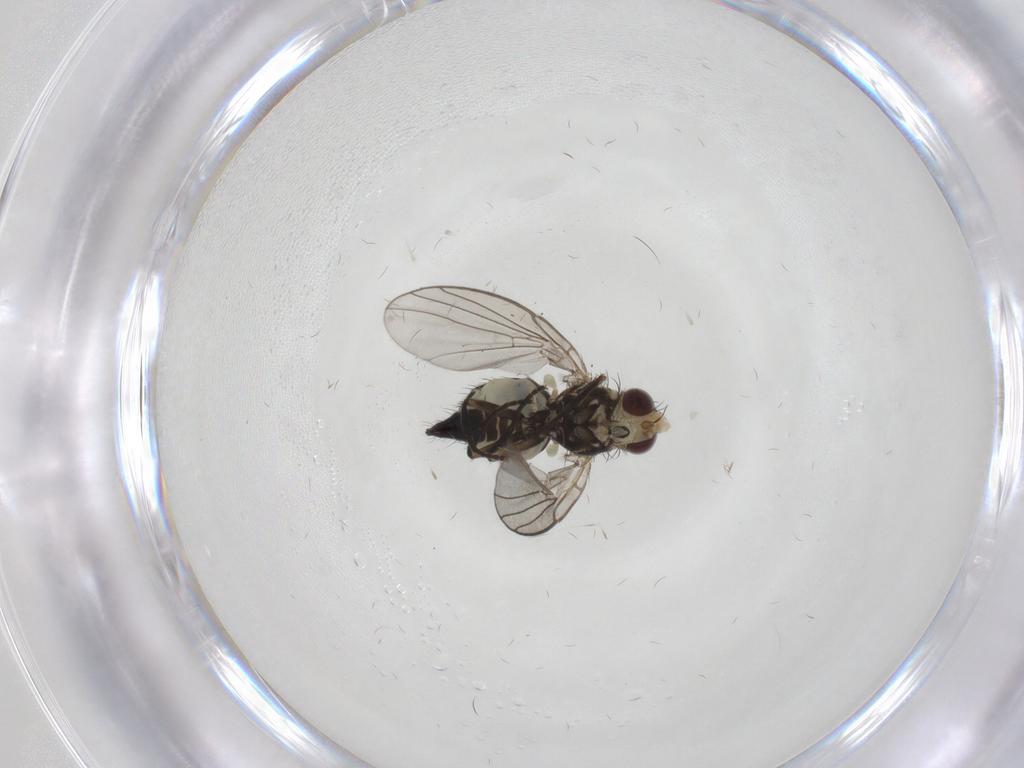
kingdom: Animalia
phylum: Arthropoda
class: Insecta
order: Diptera
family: Agromyzidae
